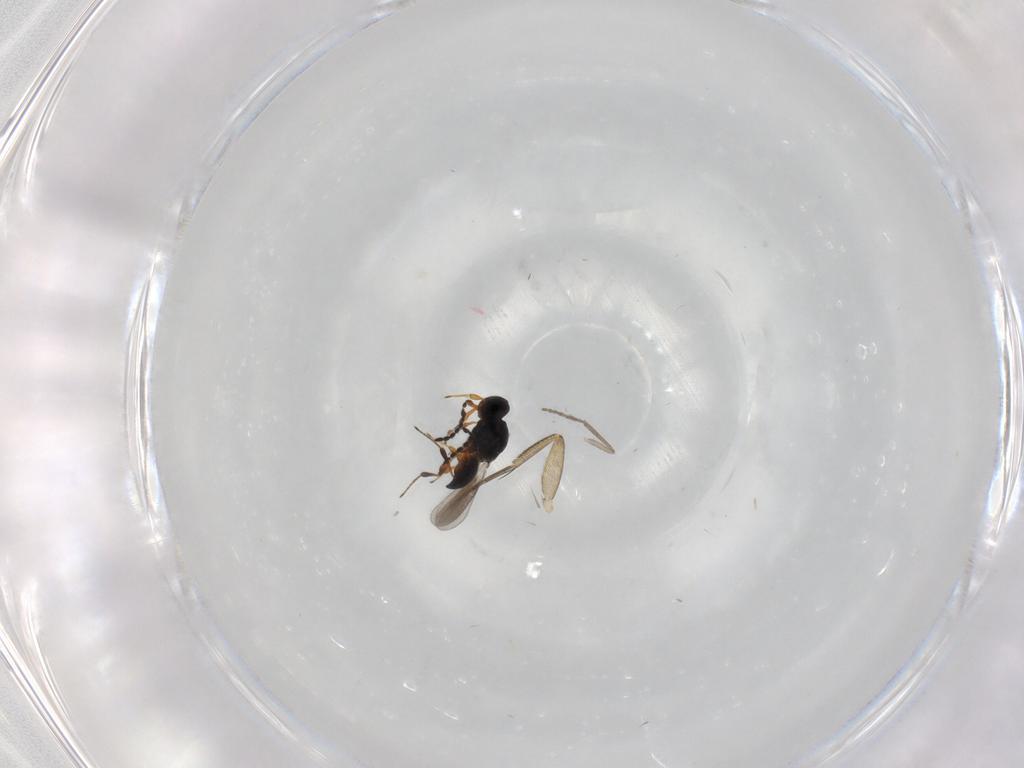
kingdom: Animalia
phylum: Arthropoda
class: Insecta
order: Hymenoptera
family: Platygastridae
